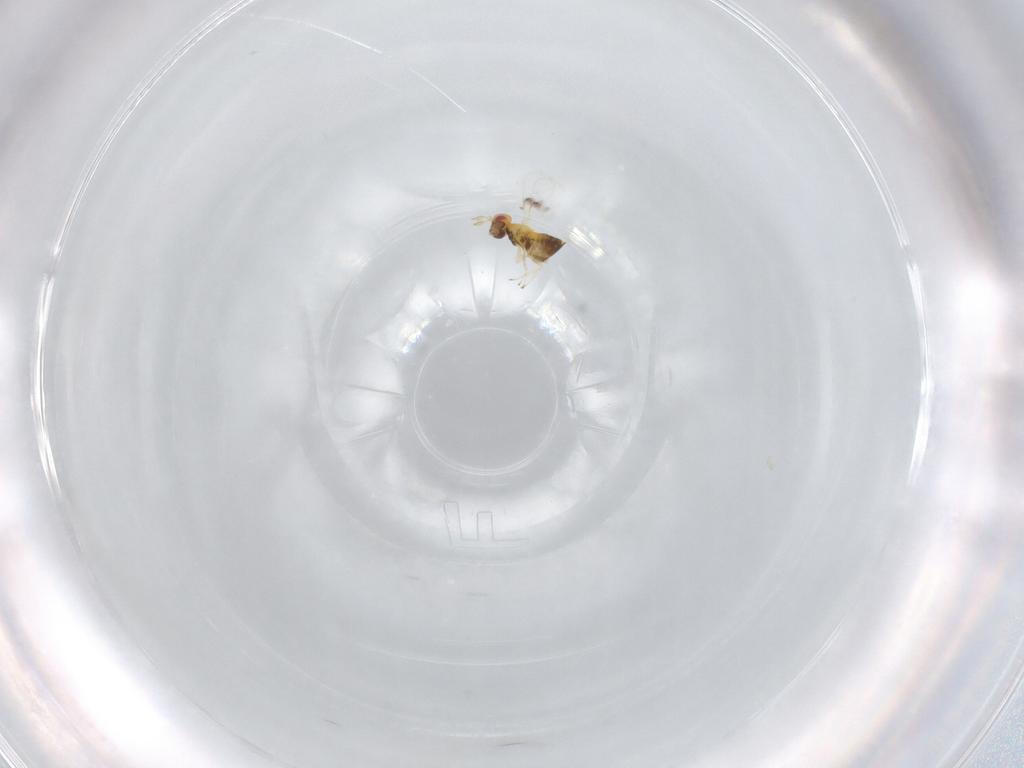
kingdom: Animalia
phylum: Arthropoda
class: Insecta
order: Hymenoptera
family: Trichogrammatidae
